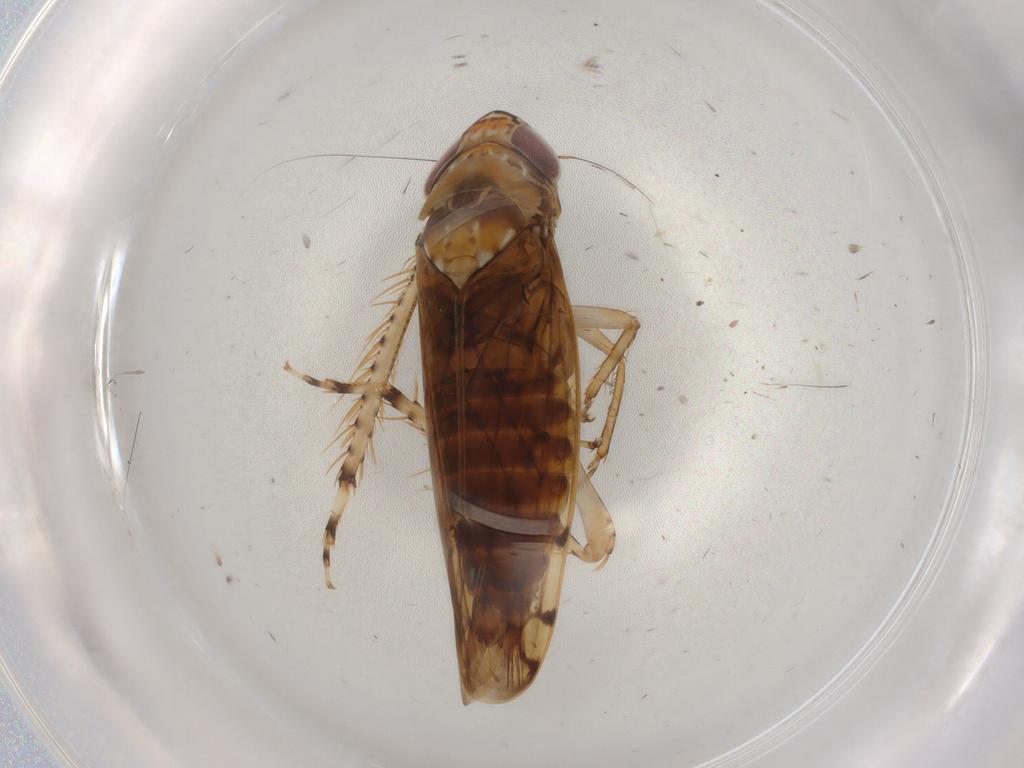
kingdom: Animalia
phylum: Arthropoda
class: Insecta
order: Hemiptera
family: Cicadellidae
